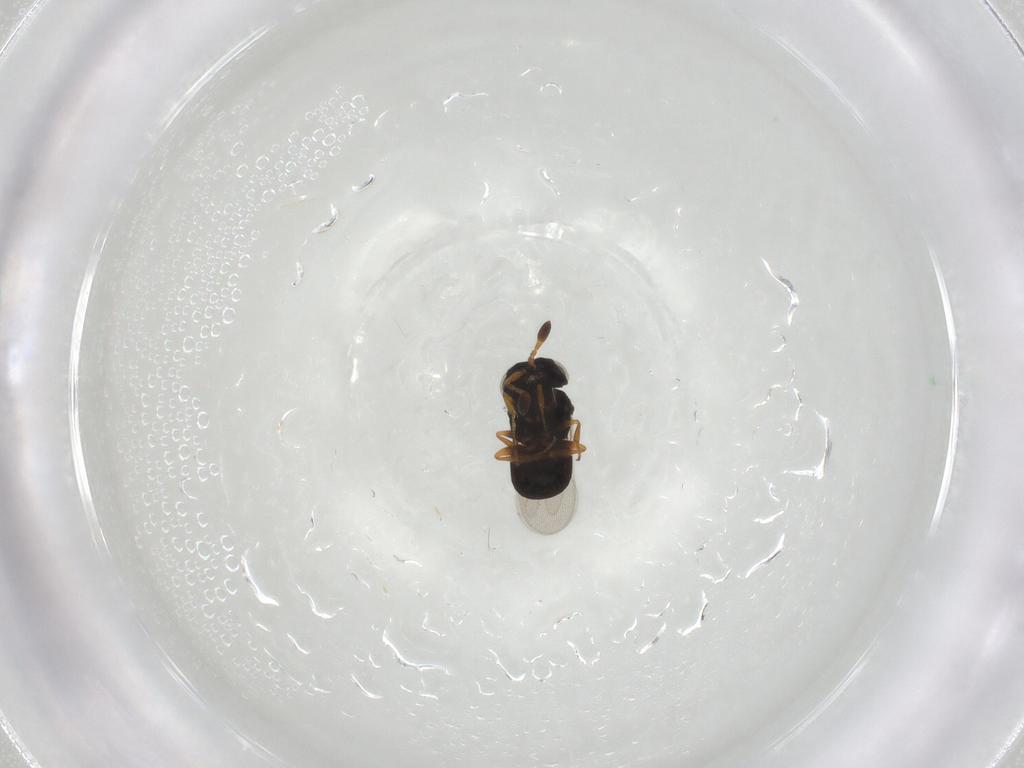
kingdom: Animalia
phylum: Arthropoda
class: Insecta
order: Hymenoptera
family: Scelionidae
